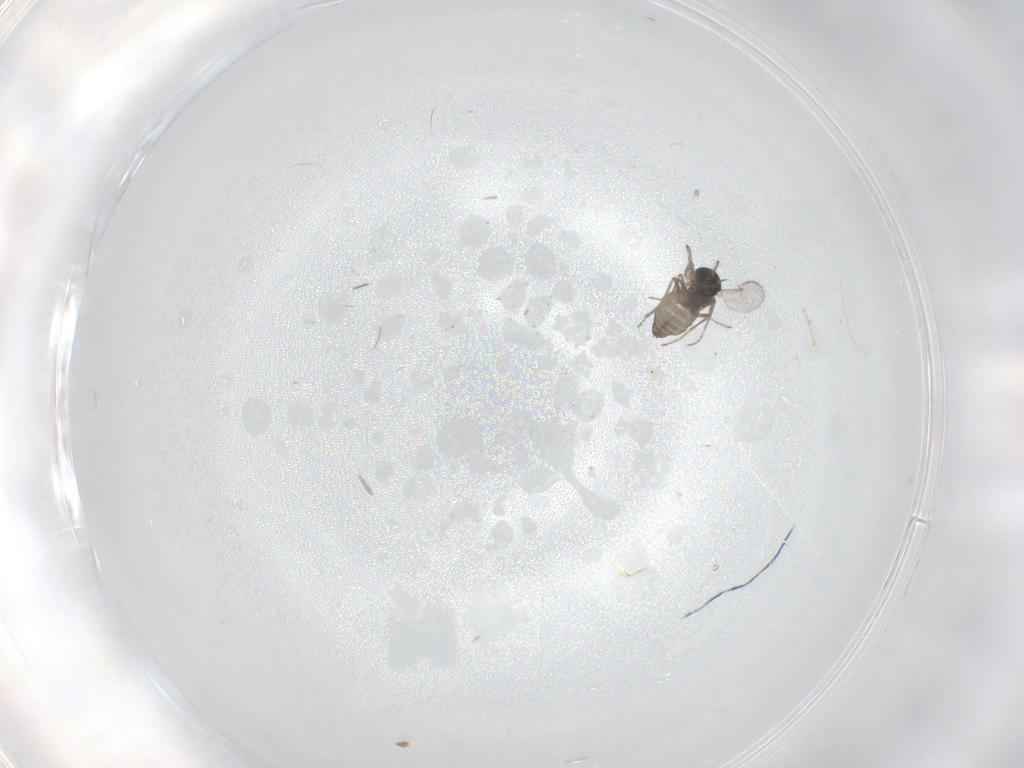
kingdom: Animalia
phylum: Arthropoda
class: Insecta
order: Diptera
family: Ceratopogonidae
